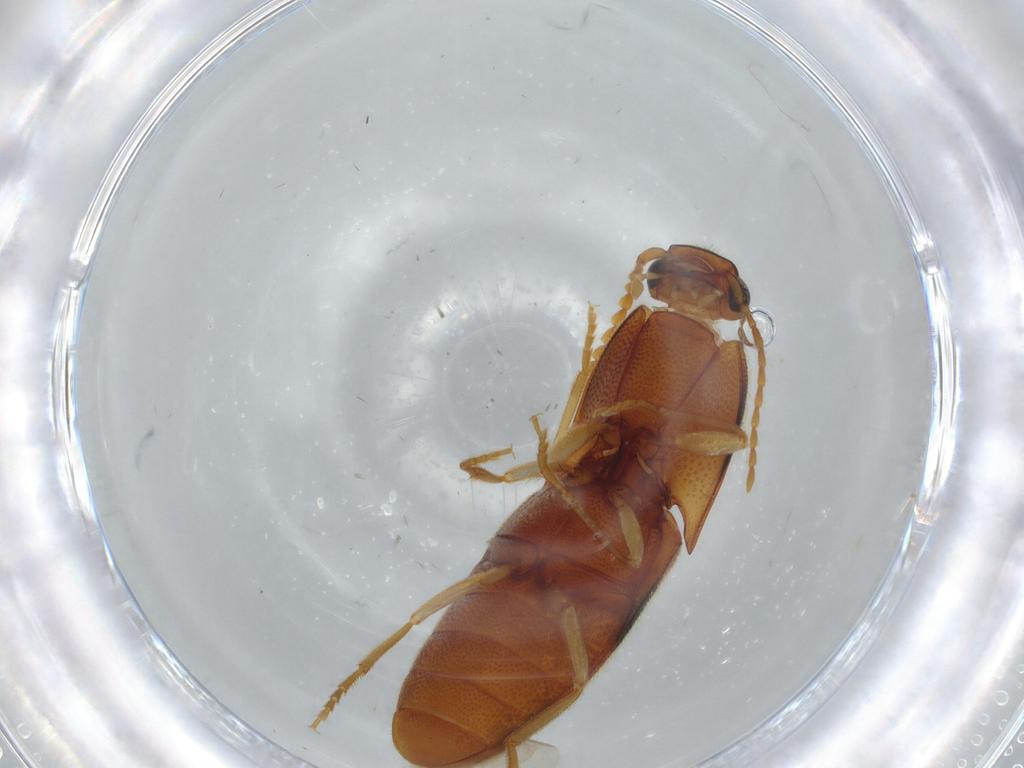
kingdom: Animalia
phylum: Arthropoda
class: Insecta
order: Coleoptera
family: Elateridae
